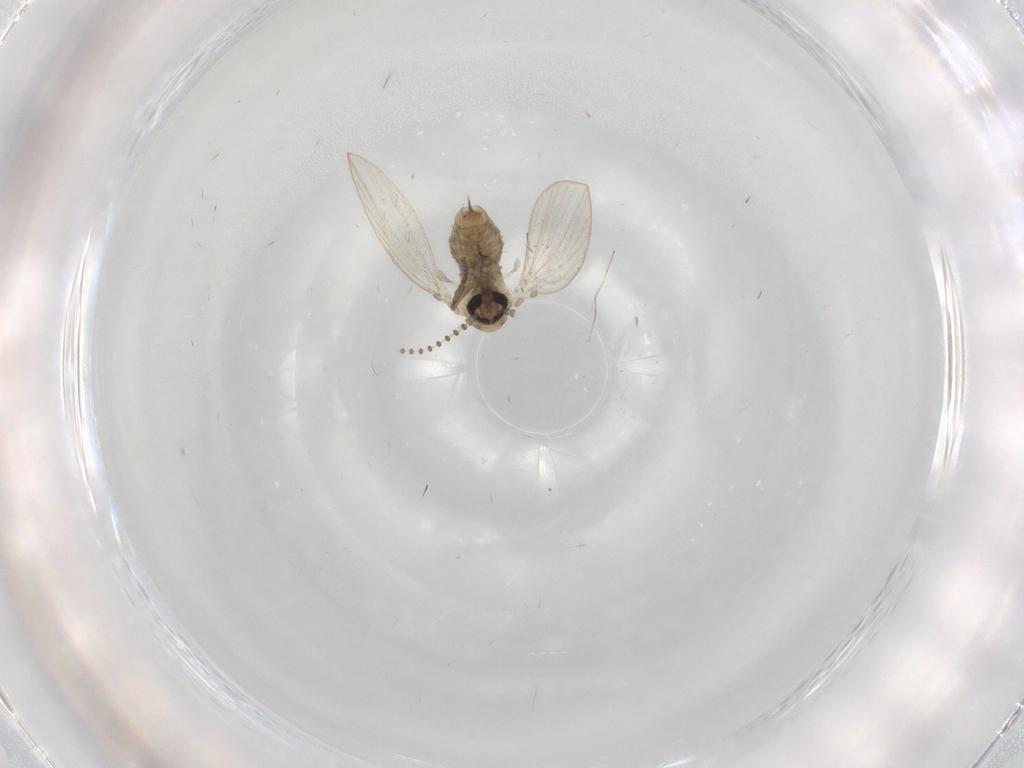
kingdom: Animalia
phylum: Arthropoda
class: Insecta
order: Diptera
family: Psychodidae
